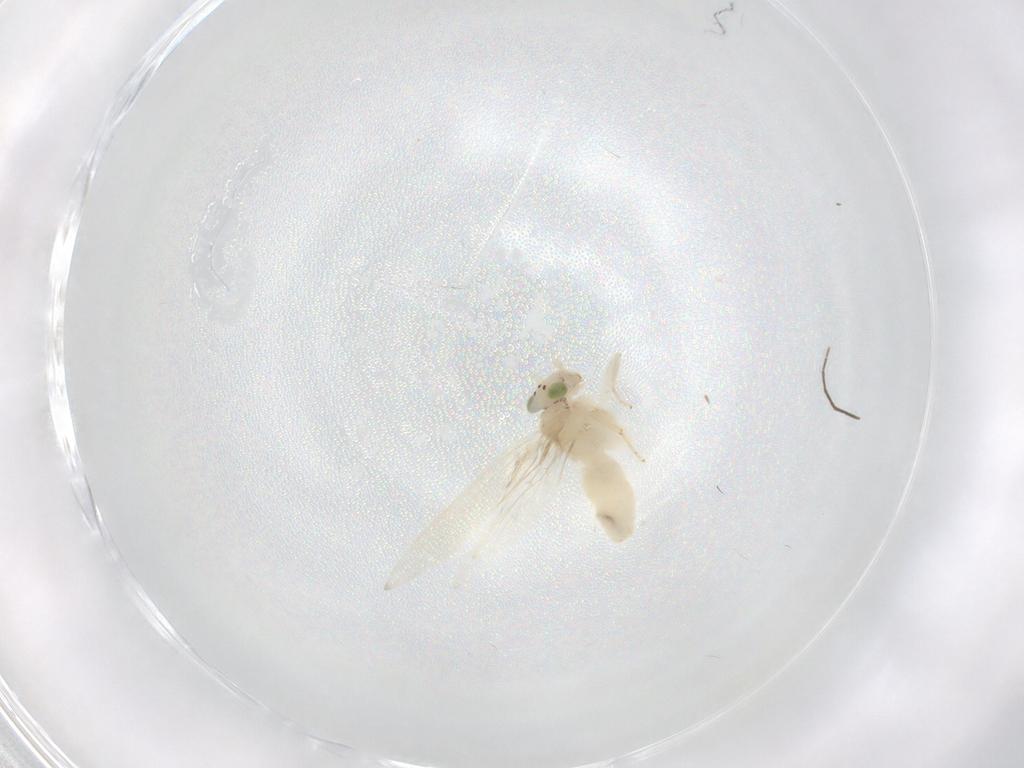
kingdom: Animalia
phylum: Arthropoda
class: Insecta
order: Psocodea
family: Lepidopsocidae
